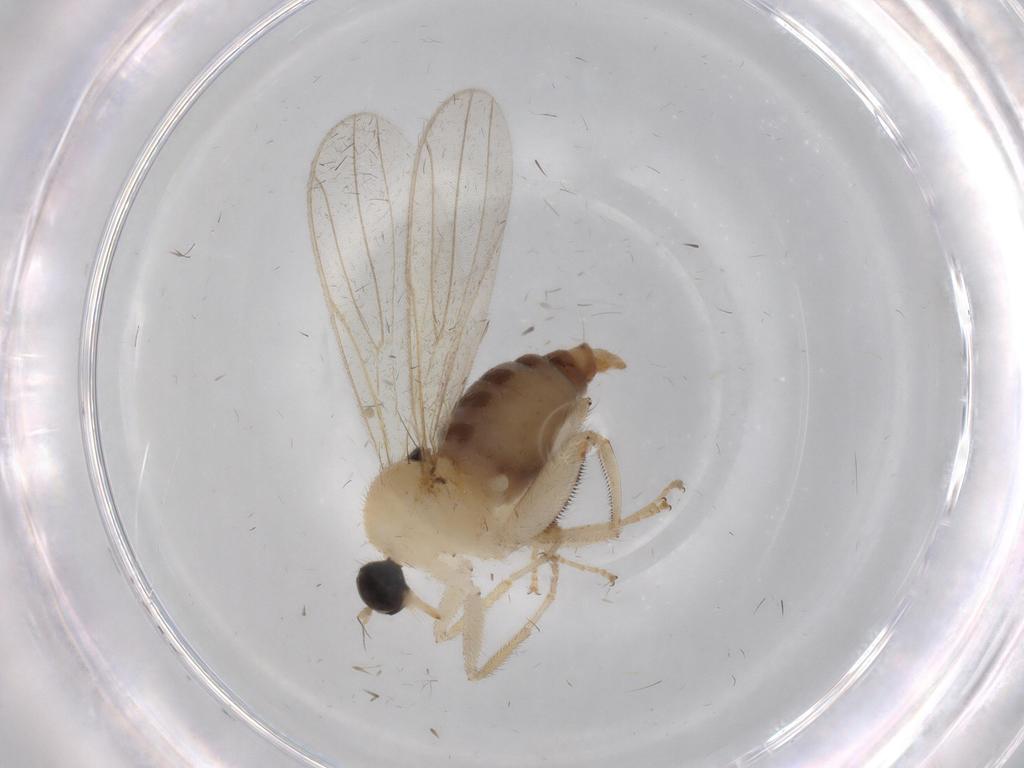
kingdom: Animalia
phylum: Arthropoda
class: Insecta
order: Diptera
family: Hybotidae
